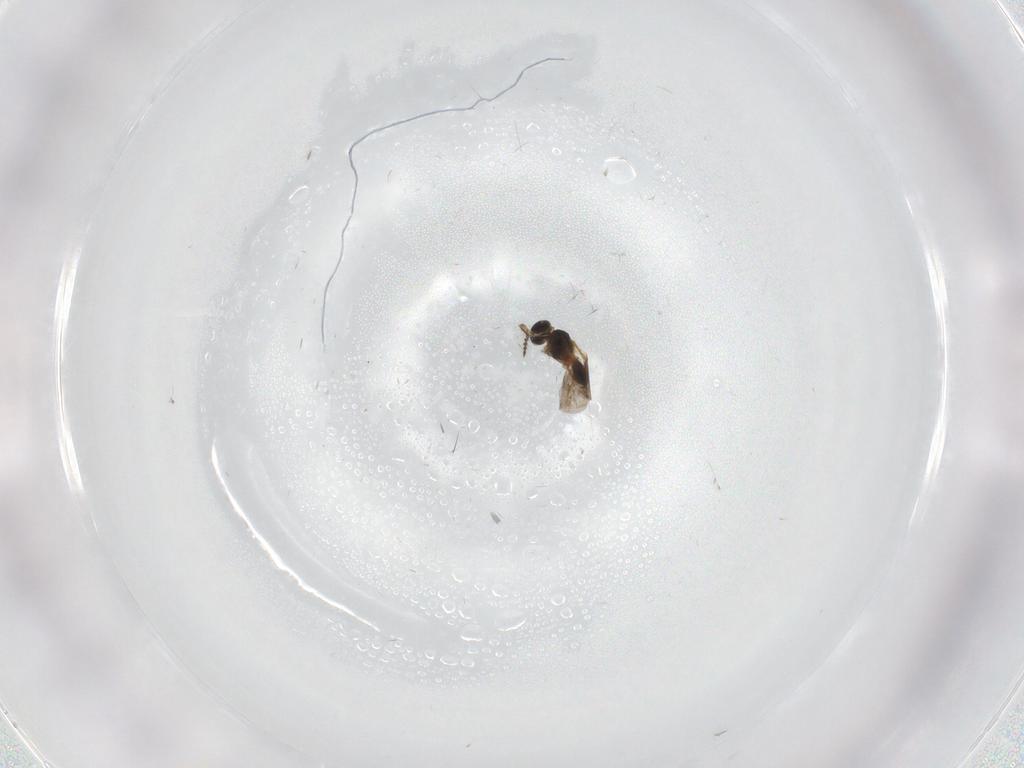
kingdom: Animalia
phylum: Arthropoda
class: Insecta
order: Hymenoptera
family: Platygastridae
